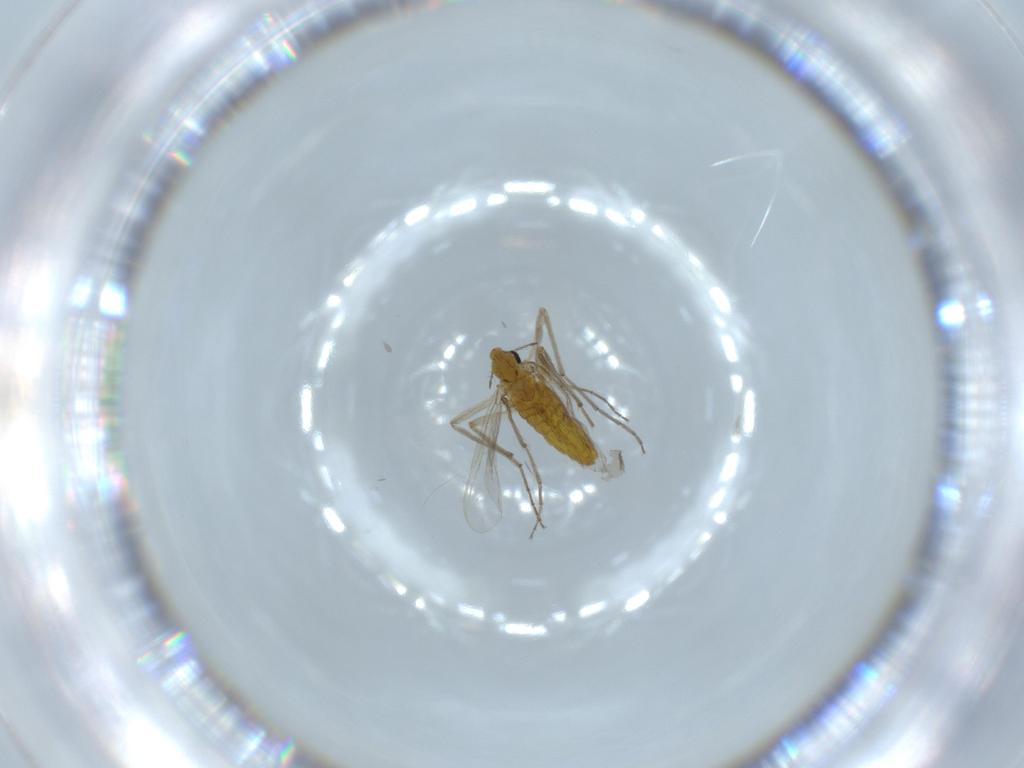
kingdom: Animalia
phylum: Arthropoda
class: Insecta
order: Diptera
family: Chironomidae
